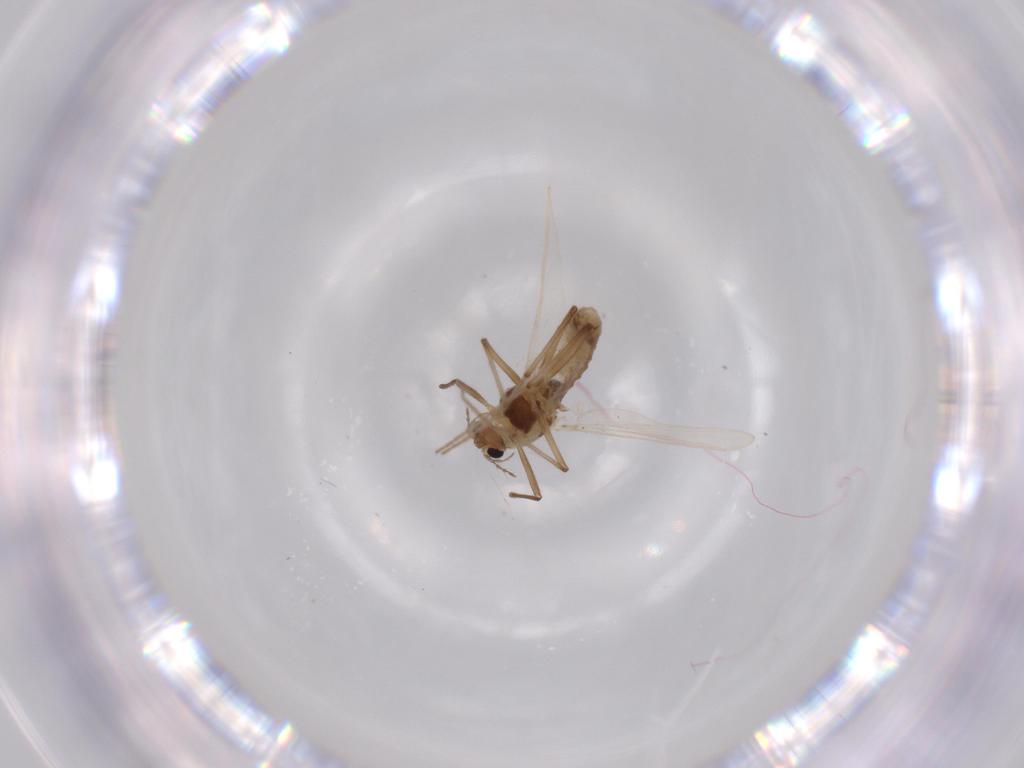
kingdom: Animalia
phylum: Arthropoda
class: Insecta
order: Diptera
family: Chironomidae
